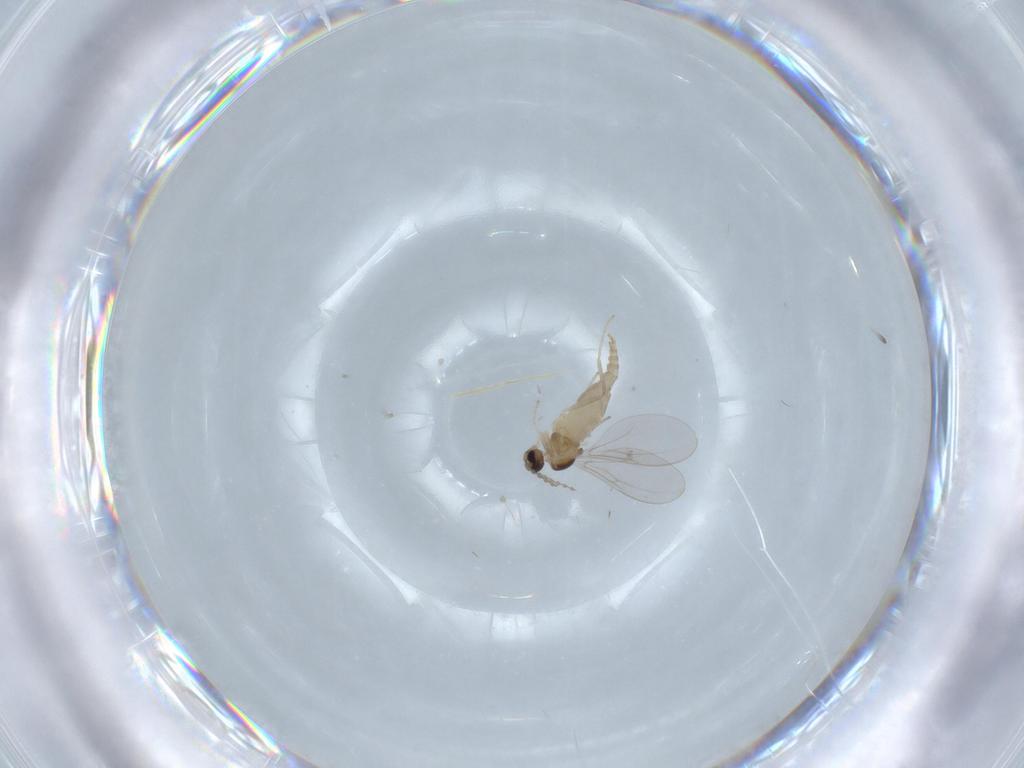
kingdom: Animalia
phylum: Arthropoda
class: Insecta
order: Diptera
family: Cecidomyiidae
